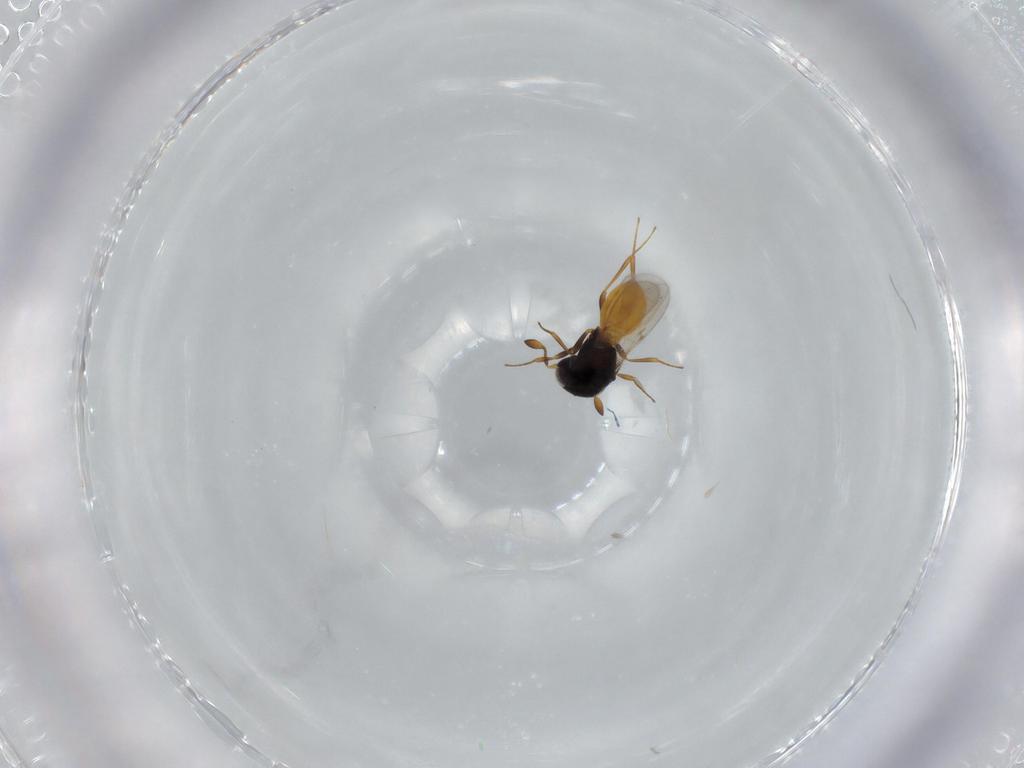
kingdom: Animalia
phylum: Arthropoda
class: Insecta
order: Hymenoptera
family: Scelionidae
